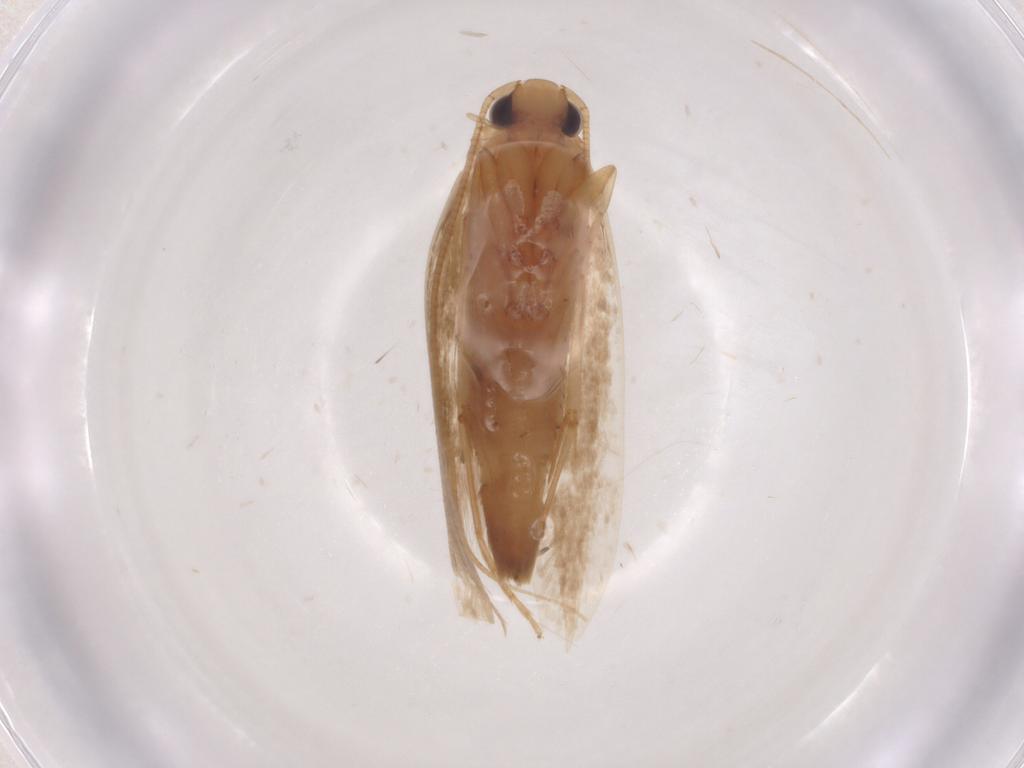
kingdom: Animalia
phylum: Arthropoda
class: Insecta
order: Lepidoptera
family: Tineidae
